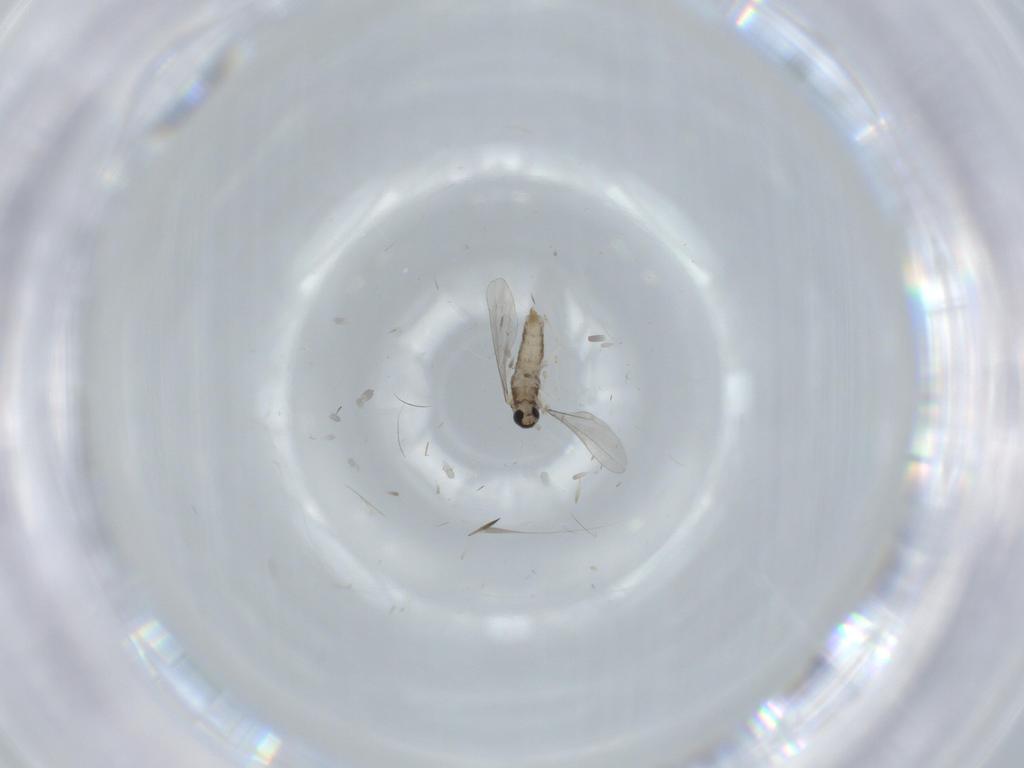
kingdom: Animalia
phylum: Arthropoda
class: Insecta
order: Diptera
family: Cecidomyiidae
